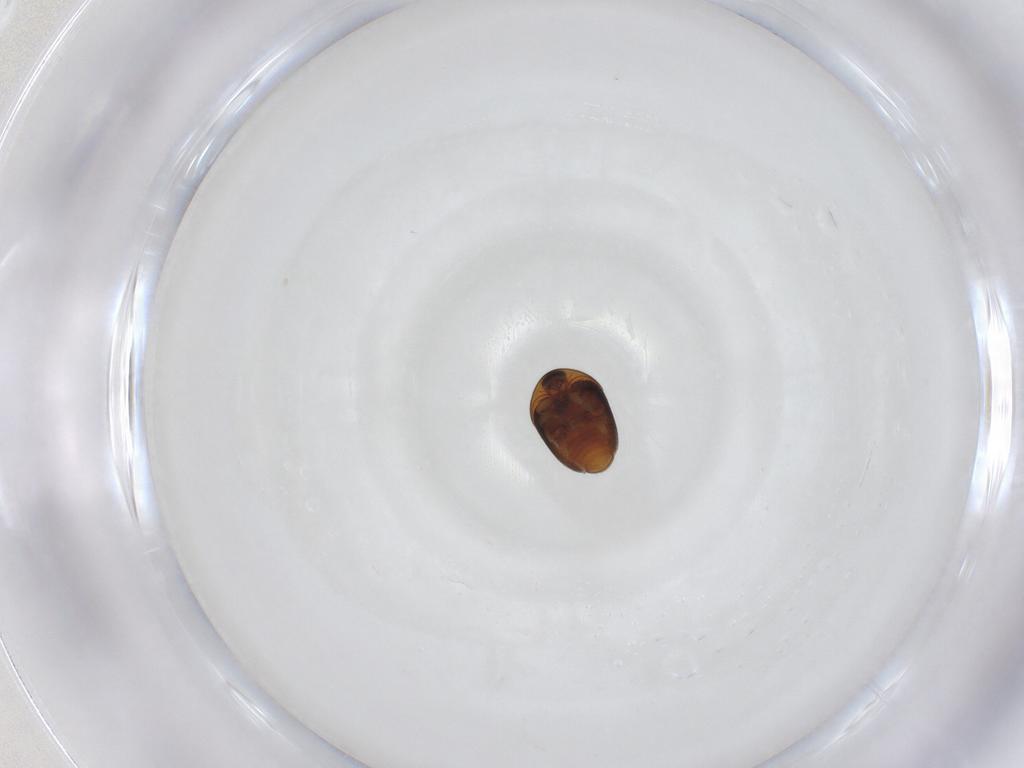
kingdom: Animalia
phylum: Arthropoda
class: Insecta
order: Coleoptera
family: Corylophidae
